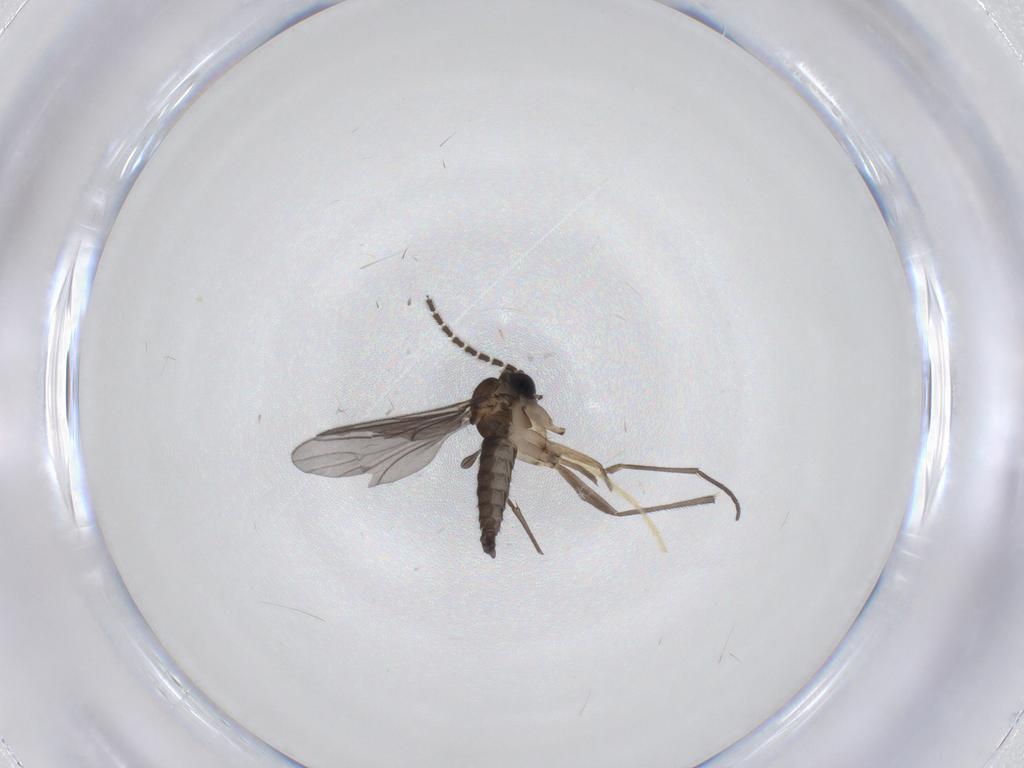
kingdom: Animalia
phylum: Arthropoda
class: Insecta
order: Diptera
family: Sciaridae
